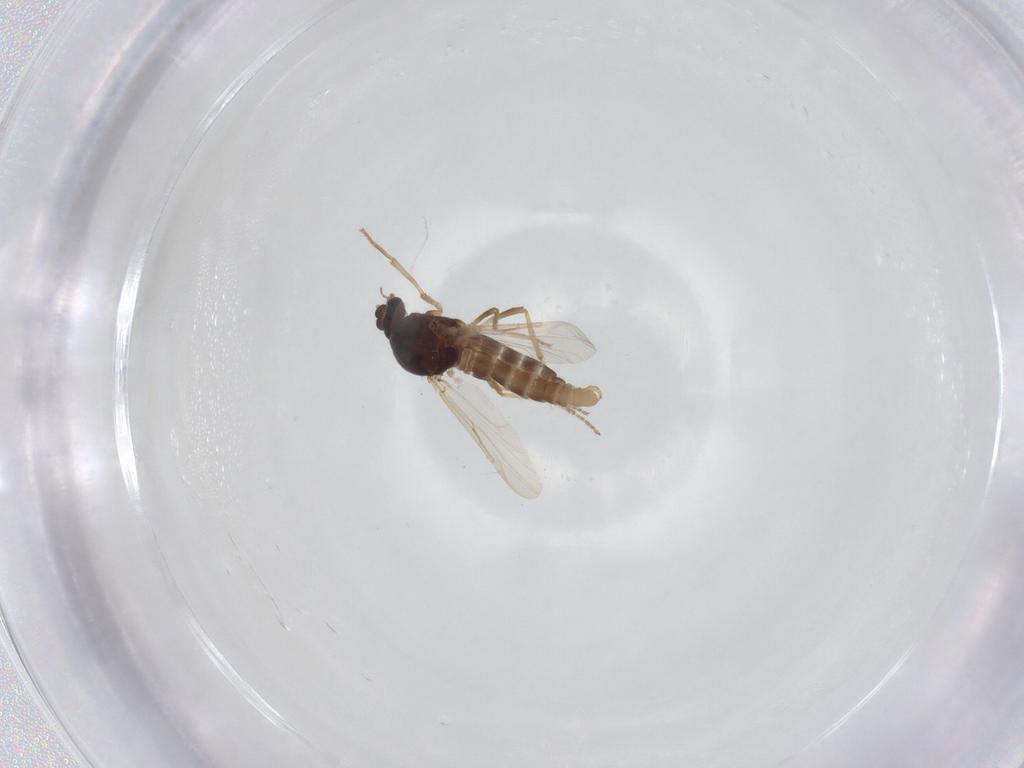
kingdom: Animalia
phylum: Arthropoda
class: Insecta
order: Diptera
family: Ceratopogonidae
